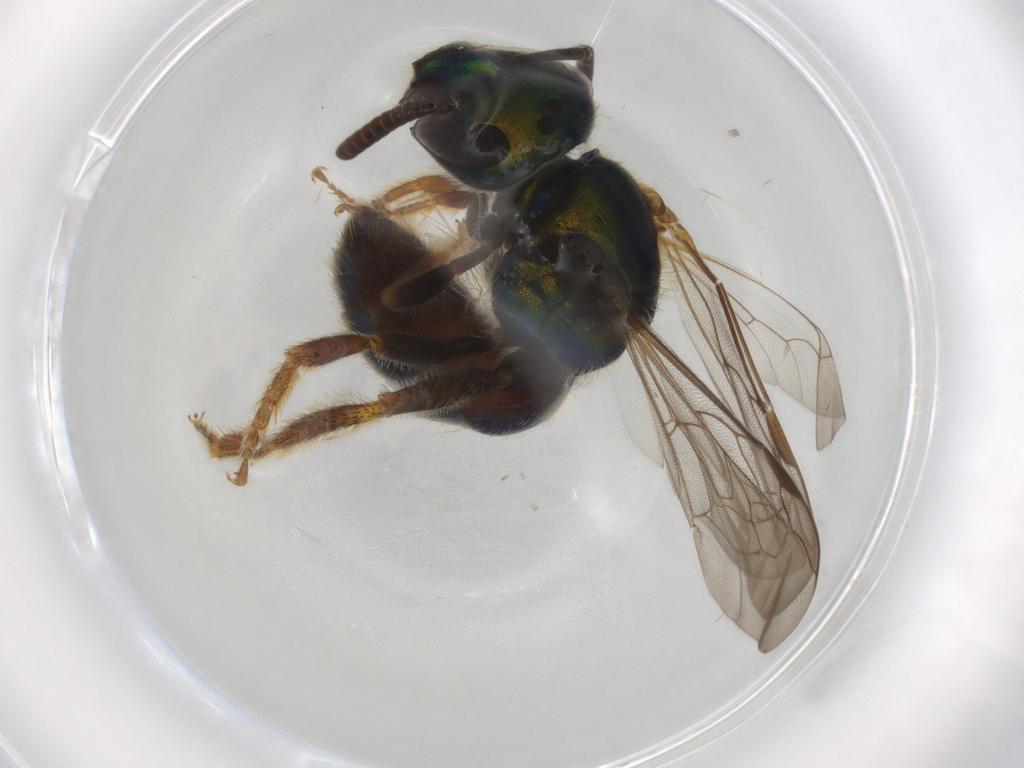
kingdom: Animalia
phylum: Arthropoda
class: Insecta
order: Hymenoptera
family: Halictidae
